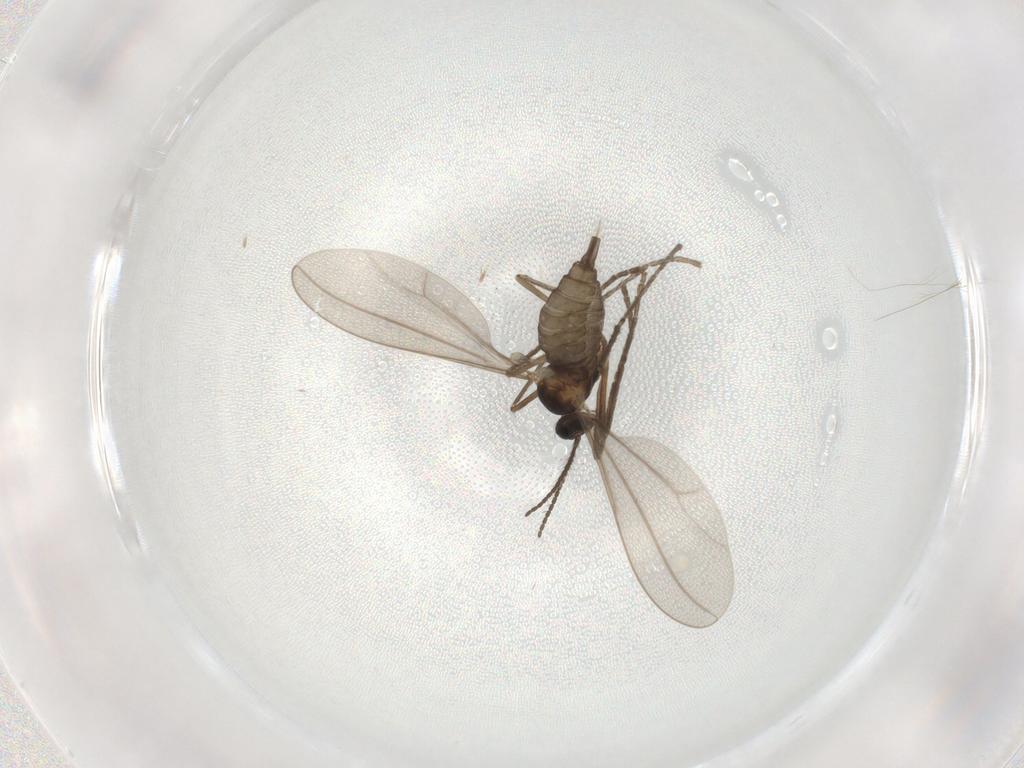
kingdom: Animalia
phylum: Arthropoda
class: Insecta
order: Diptera
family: Cecidomyiidae
